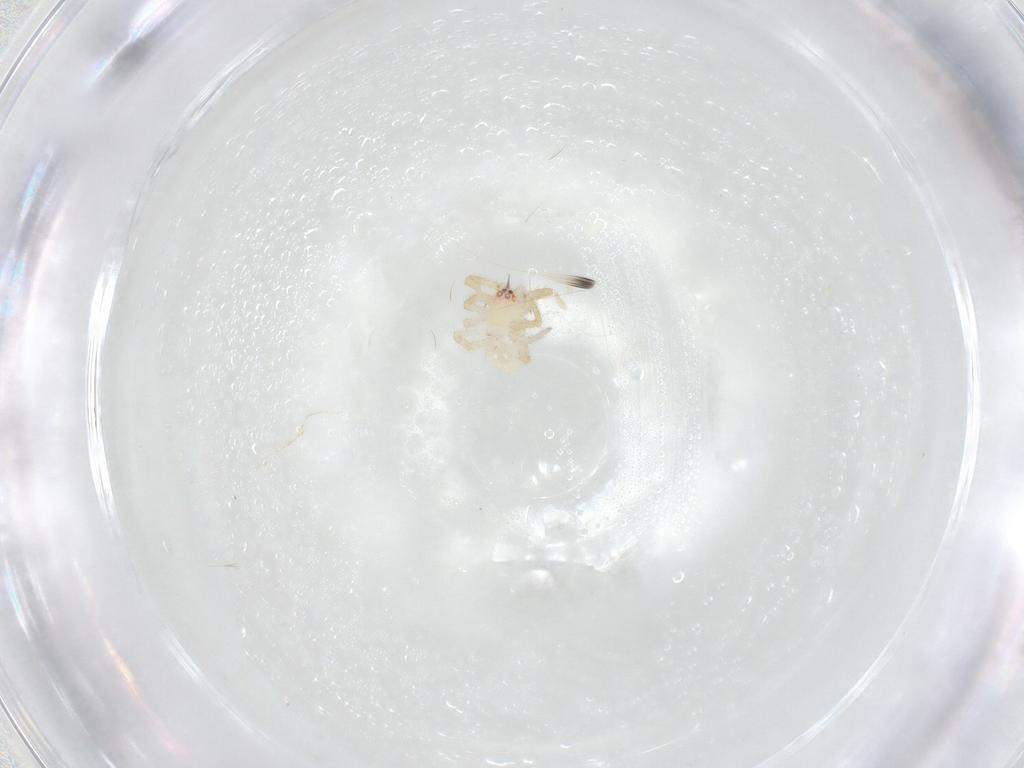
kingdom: Animalia
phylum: Arthropoda
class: Arachnida
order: Araneae
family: Theridiidae
